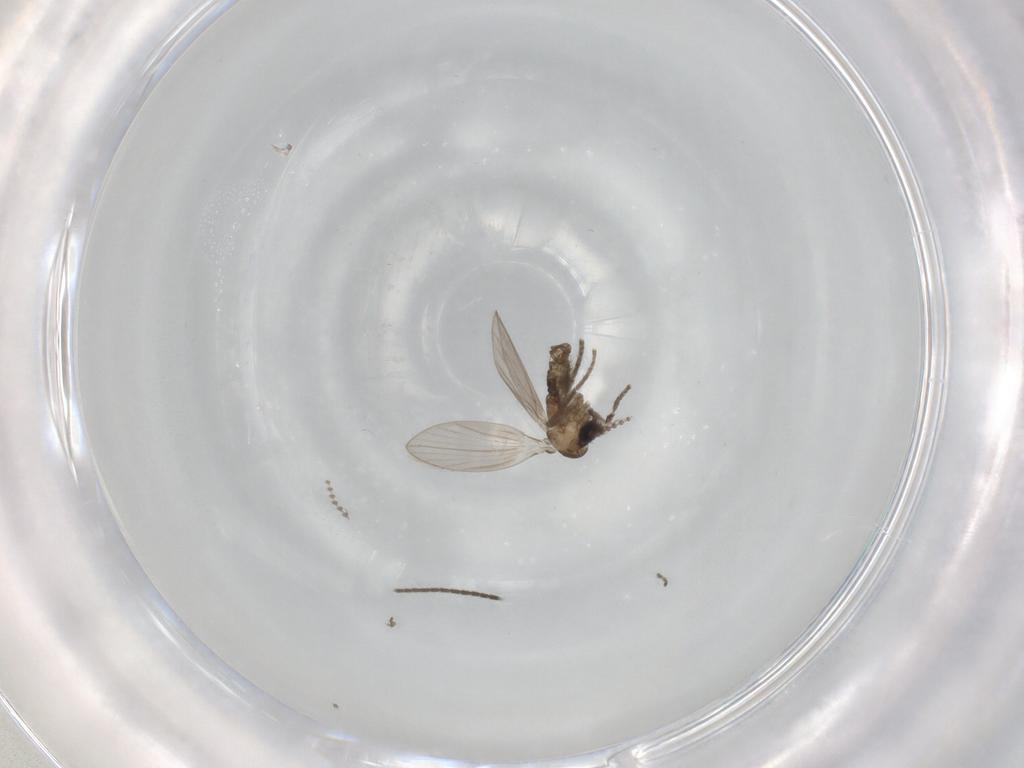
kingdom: Animalia
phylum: Arthropoda
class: Insecta
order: Diptera
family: Psychodidae
